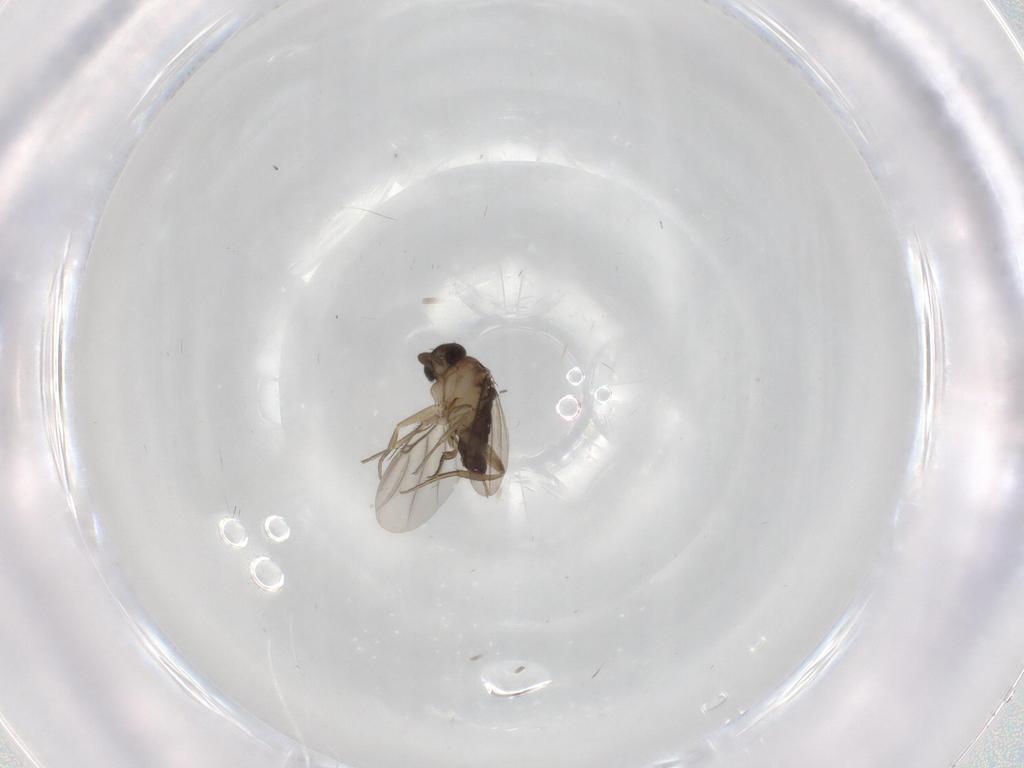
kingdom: Animalia
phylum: Arthropoda
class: Insecta
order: Diptera
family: Phoridae
